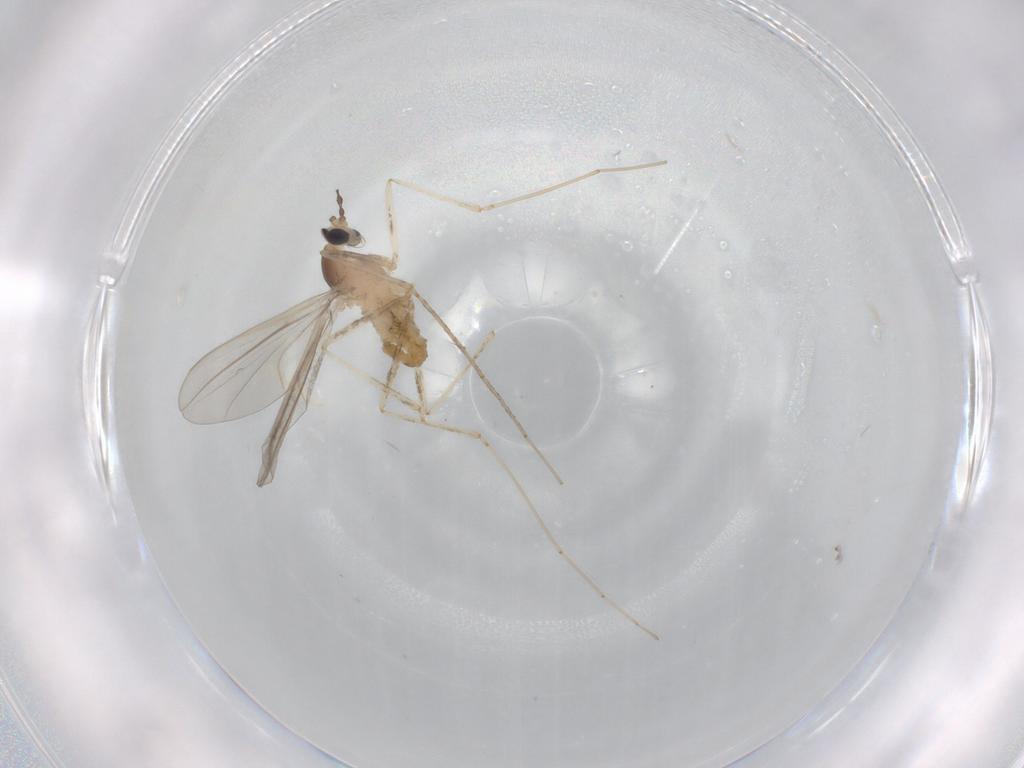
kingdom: Animalia
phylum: Arthropoda
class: Insecta
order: Diptera
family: Cecidomyiidae
